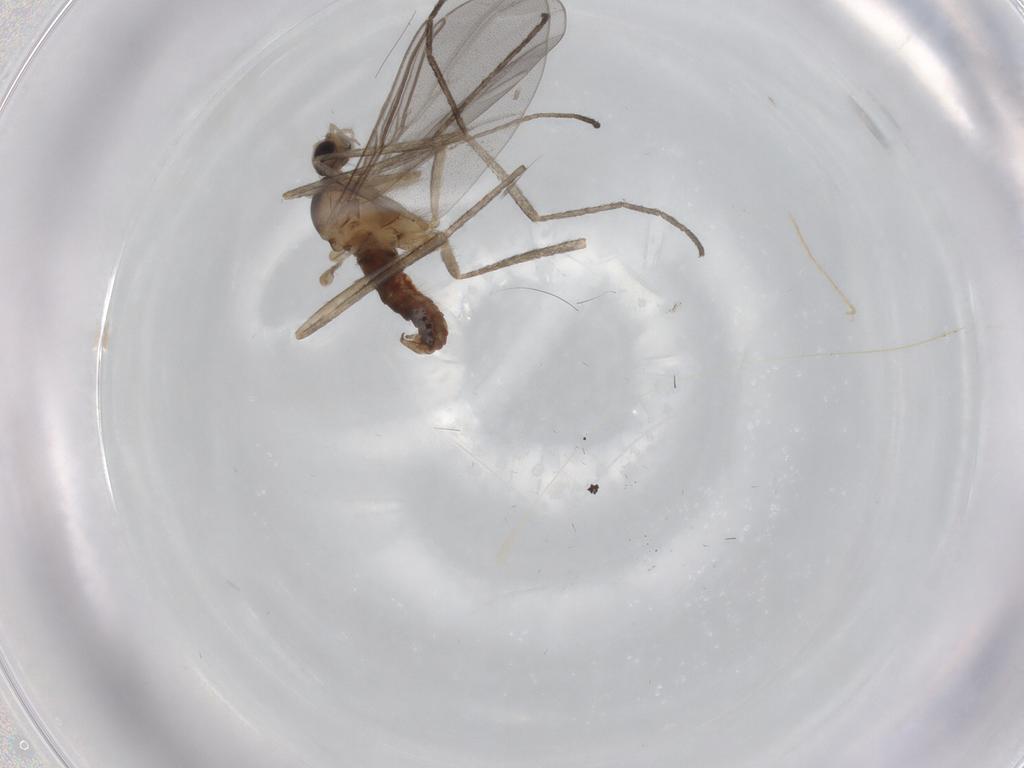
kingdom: Animalia
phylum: Arthropoda
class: Insecta
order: Diptera
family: Cecidomyiidae
